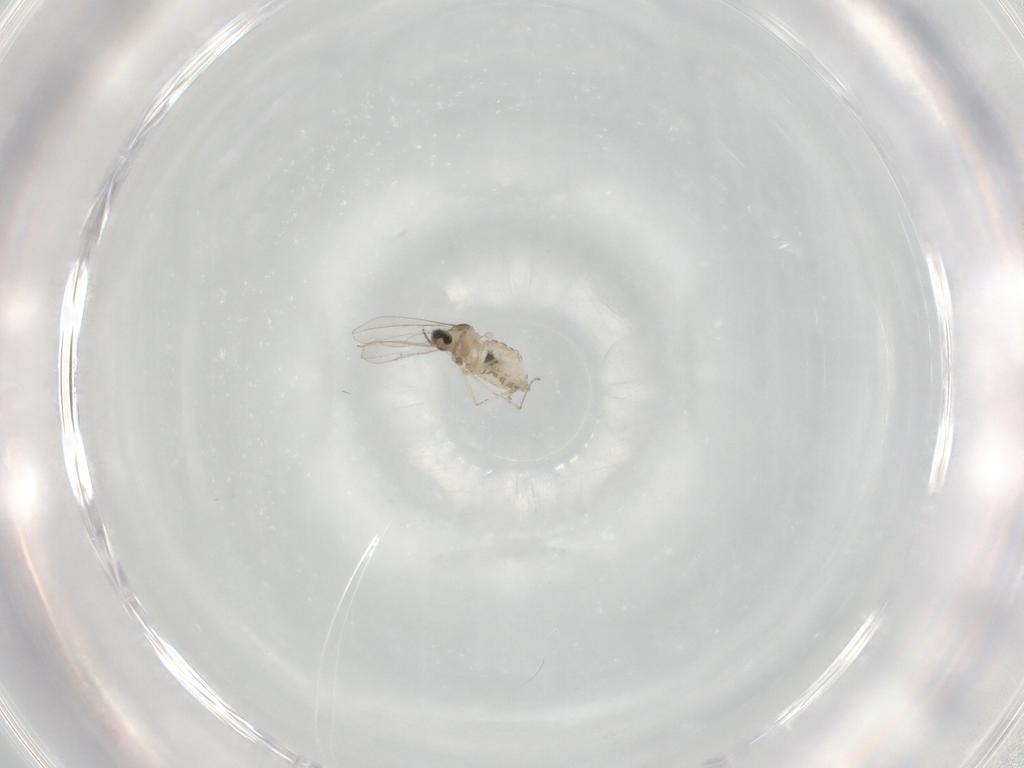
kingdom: Animalia
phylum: Arthropoda
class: Insecta
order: Diptera
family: Cecidomyiidae
